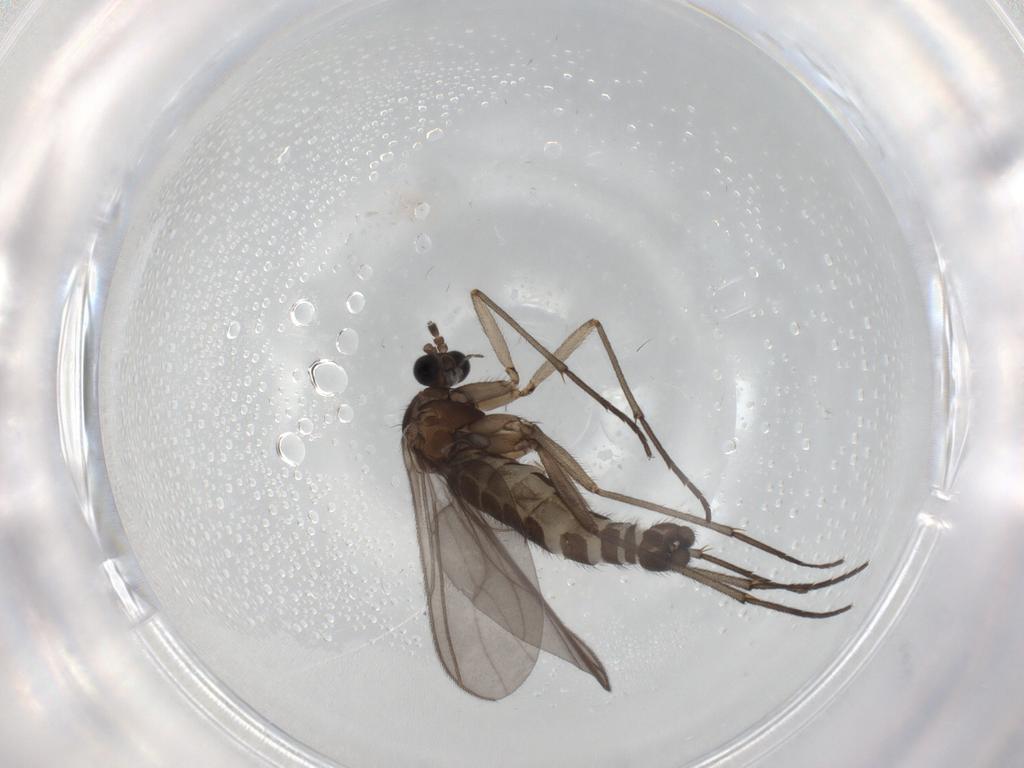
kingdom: Animalia
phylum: Arthropoda
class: Insecta
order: Diptera
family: Sciaridae
